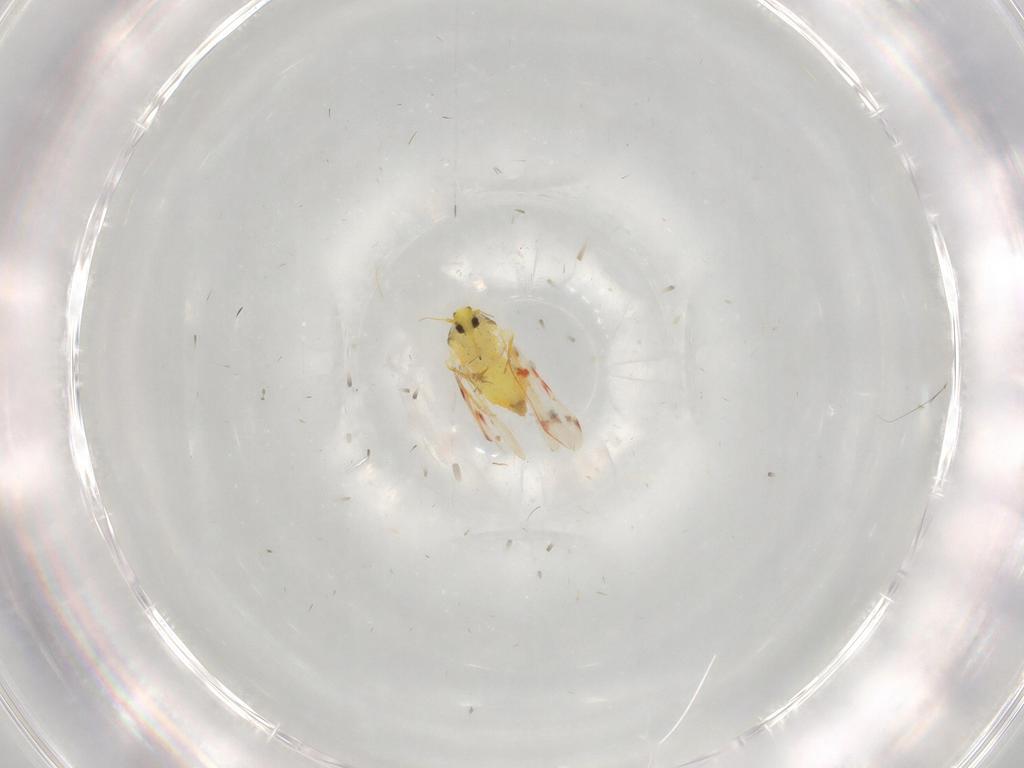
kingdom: Animalia
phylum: Arthropoda
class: Insecta
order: Hemiptera
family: Aleyrodidae
